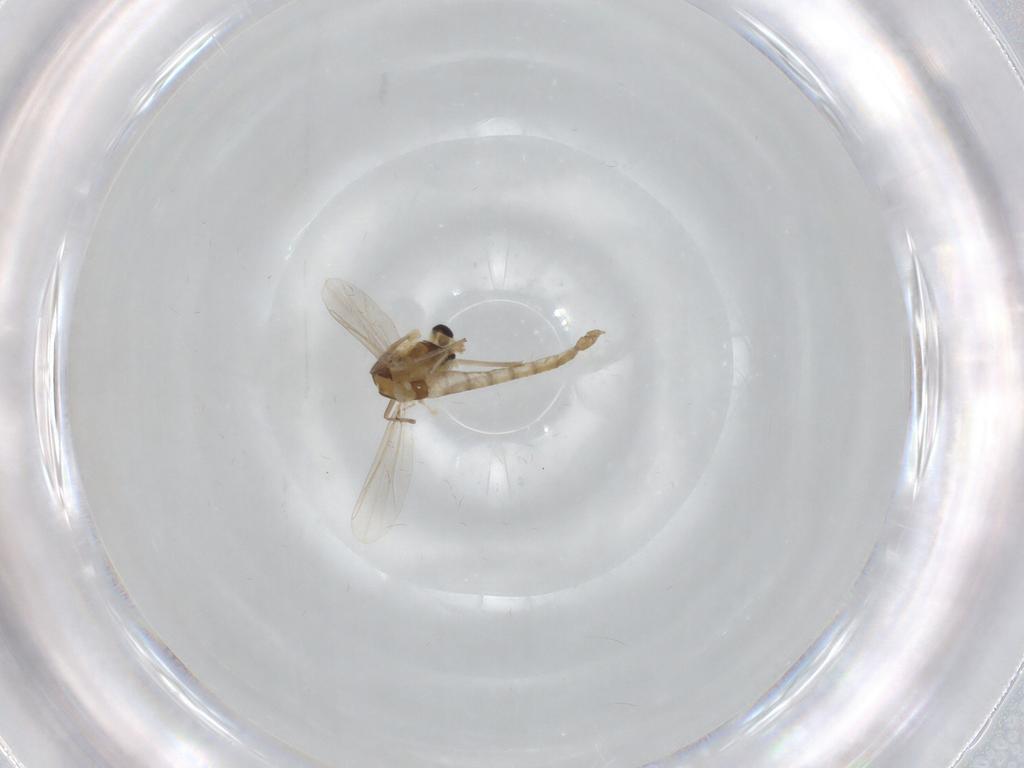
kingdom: Animalia
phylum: Arthropoda
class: Insecta
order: Diptera
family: Chironomidae
